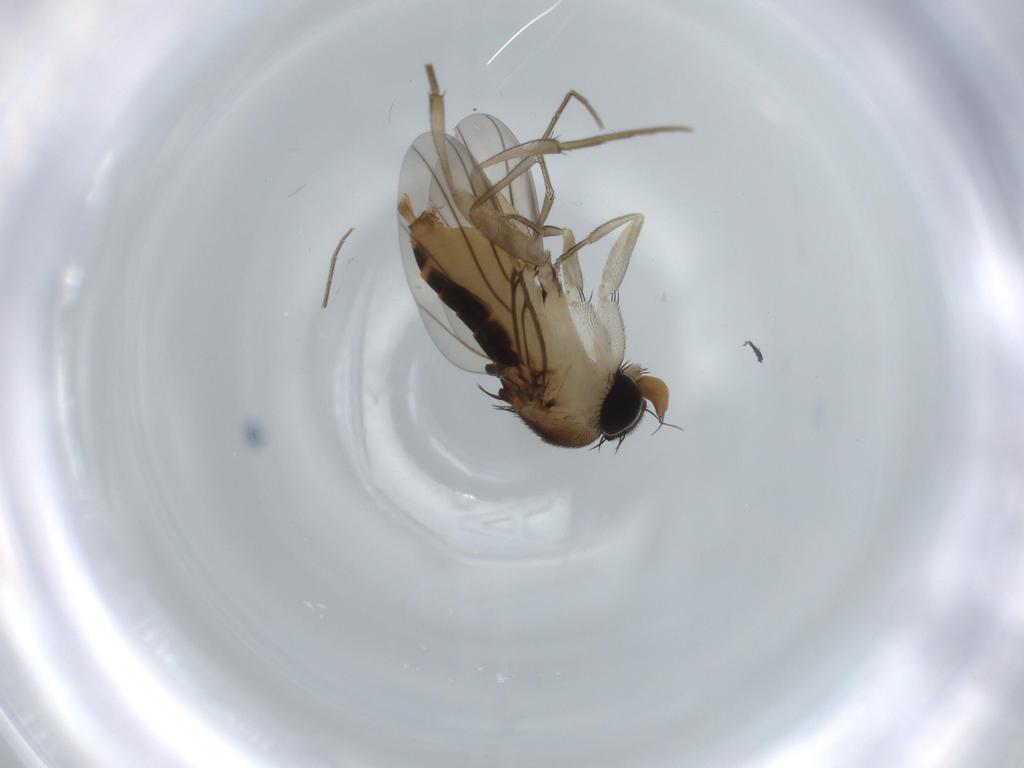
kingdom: Animalia
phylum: Arthropoda
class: Insecta
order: Diptera
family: Phoridae
